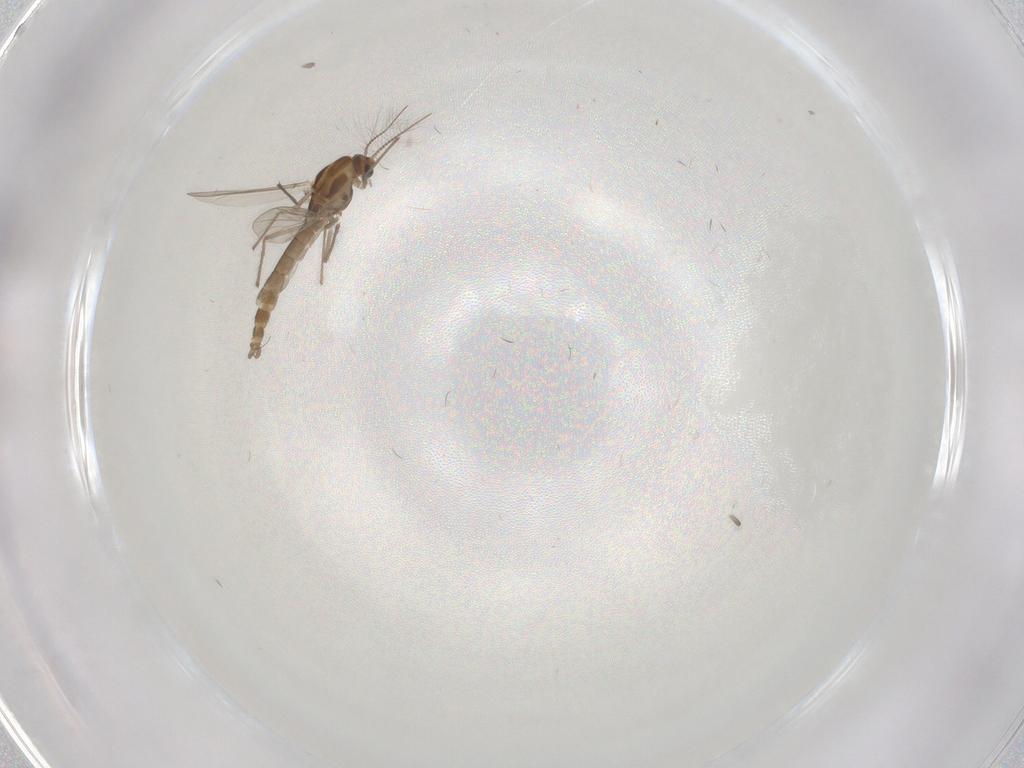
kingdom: Animalia
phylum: Arthropoda
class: Insecta
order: Diptera
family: Chironomidae
